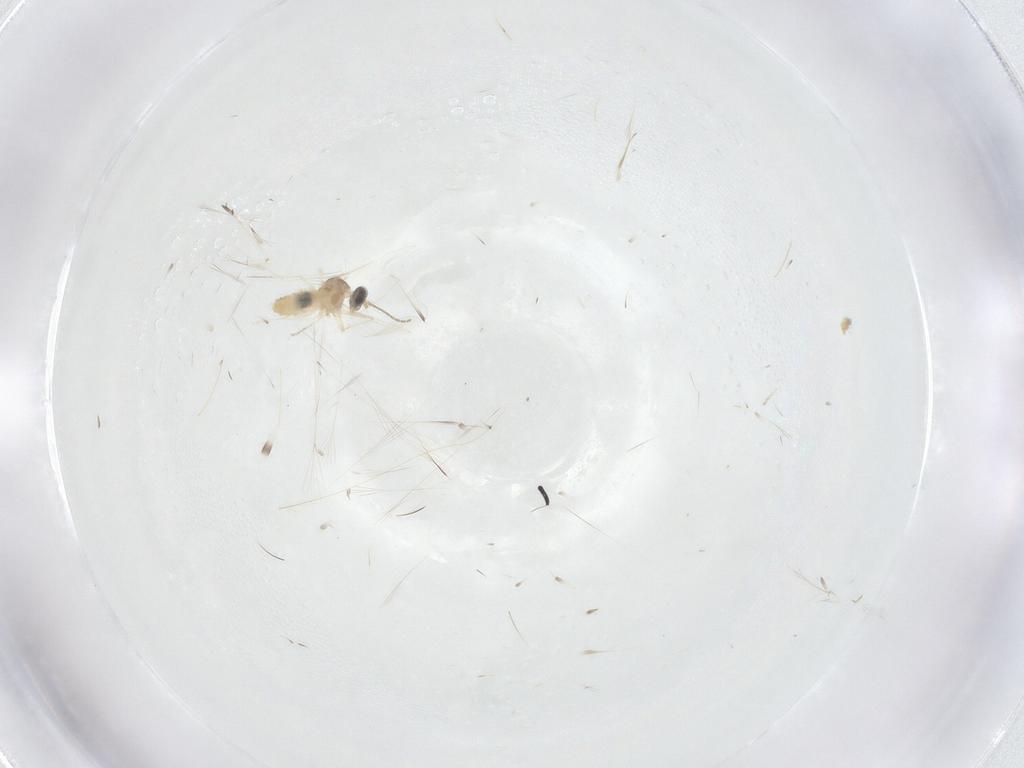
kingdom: Animalia
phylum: Arthropoda
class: Insecta
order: Diptera
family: Cecidomyiidae
